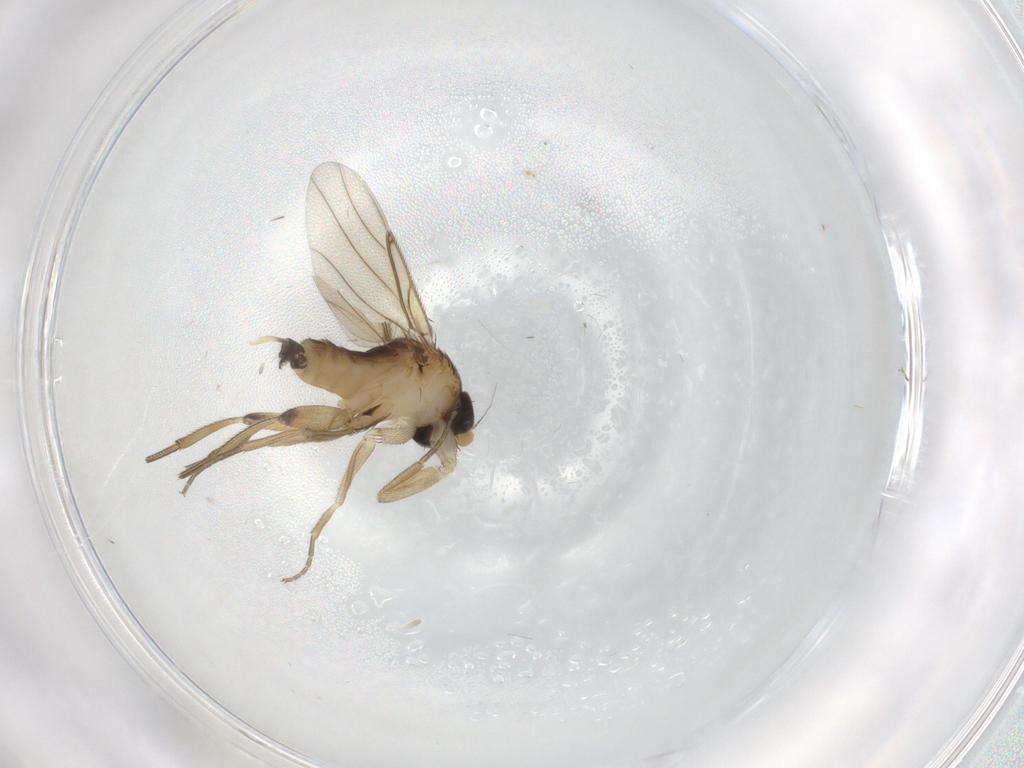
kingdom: Animalia
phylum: Arthropoda
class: Insecta
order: Diptera
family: Phoridae
